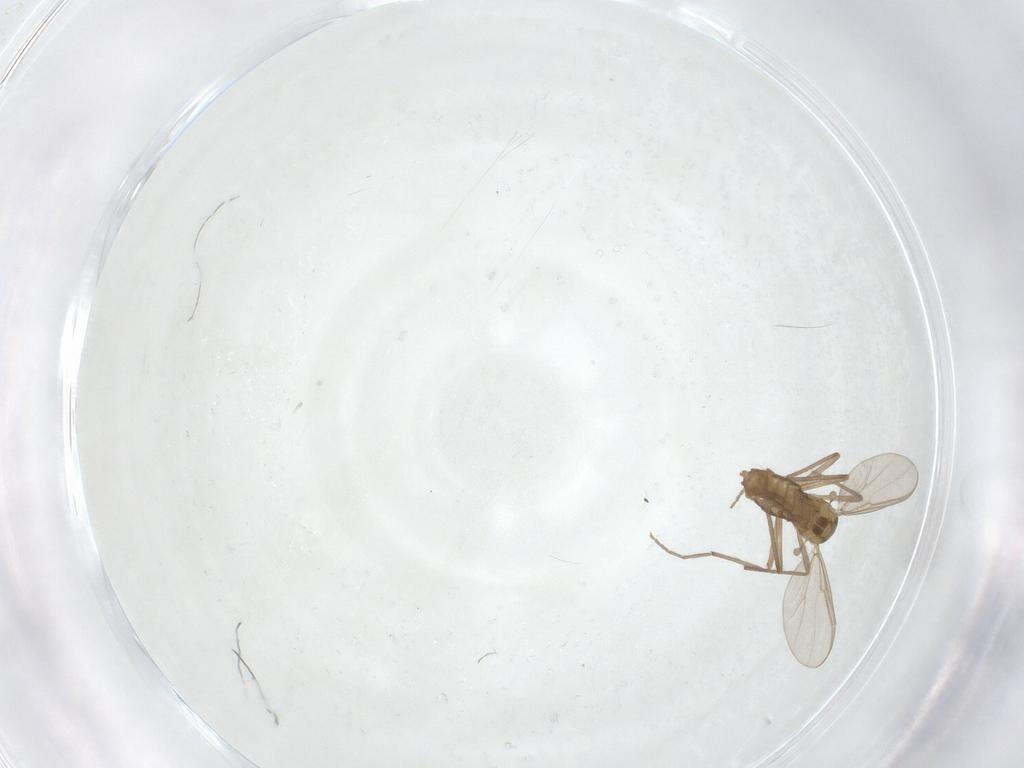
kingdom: Animalia
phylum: Arthropoda
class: Insecta
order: Diptera
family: Chironomidae
